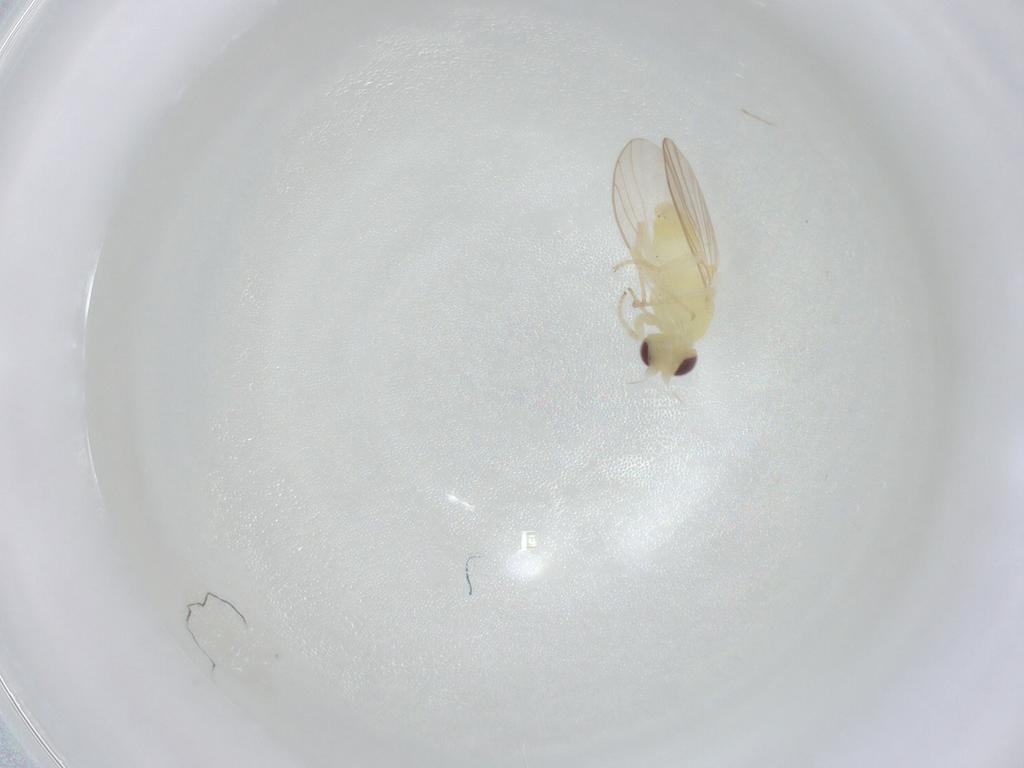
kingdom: Animalia
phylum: Arthropoda
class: Insecta
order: Diptera
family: Agromyzidae
